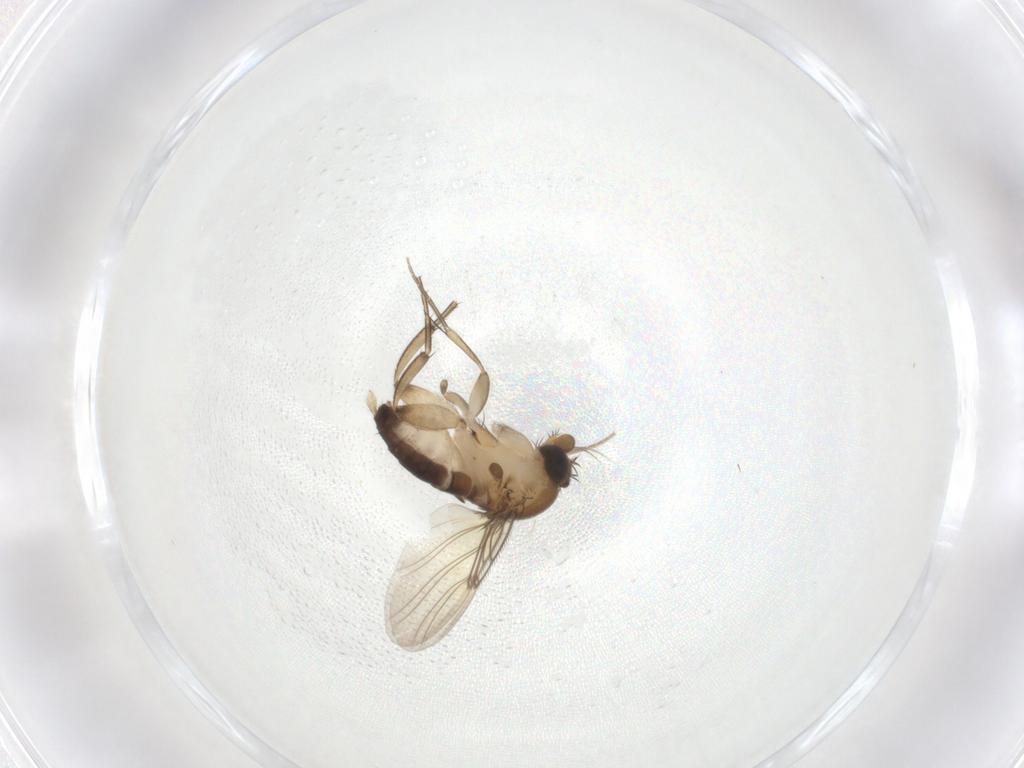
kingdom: Animalia
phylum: Arthropoda
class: Insecta
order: Diptera
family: Phoridae
